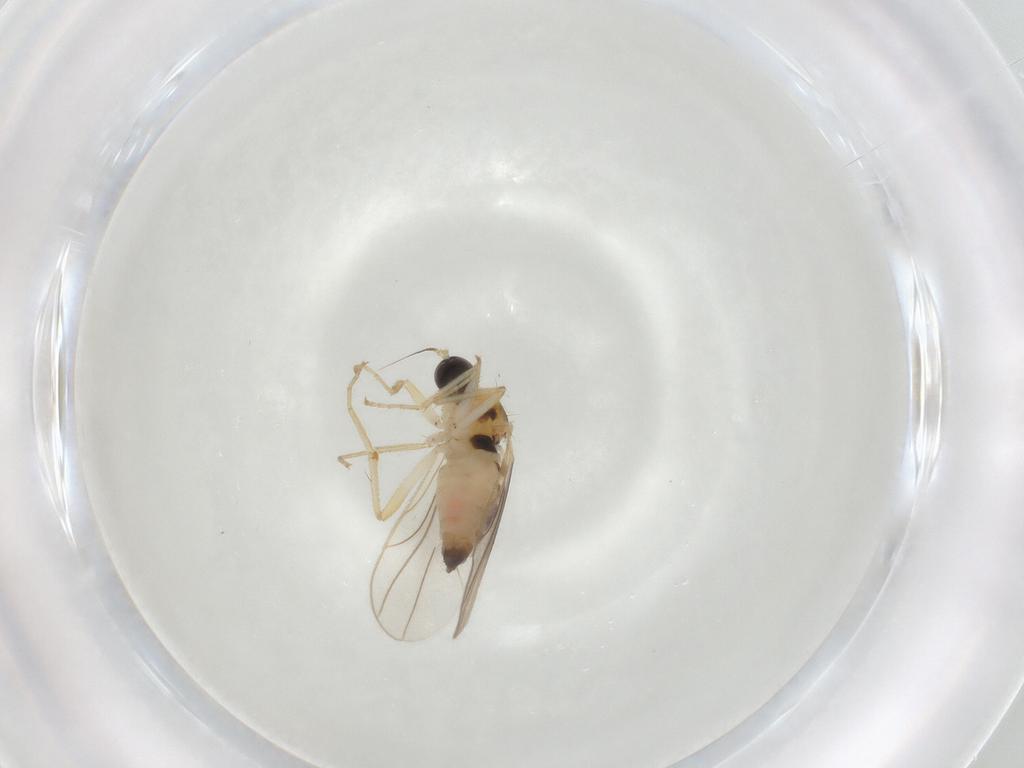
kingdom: Animalia
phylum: Arthropoda
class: Insecta
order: Diptera
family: Hybotidae
